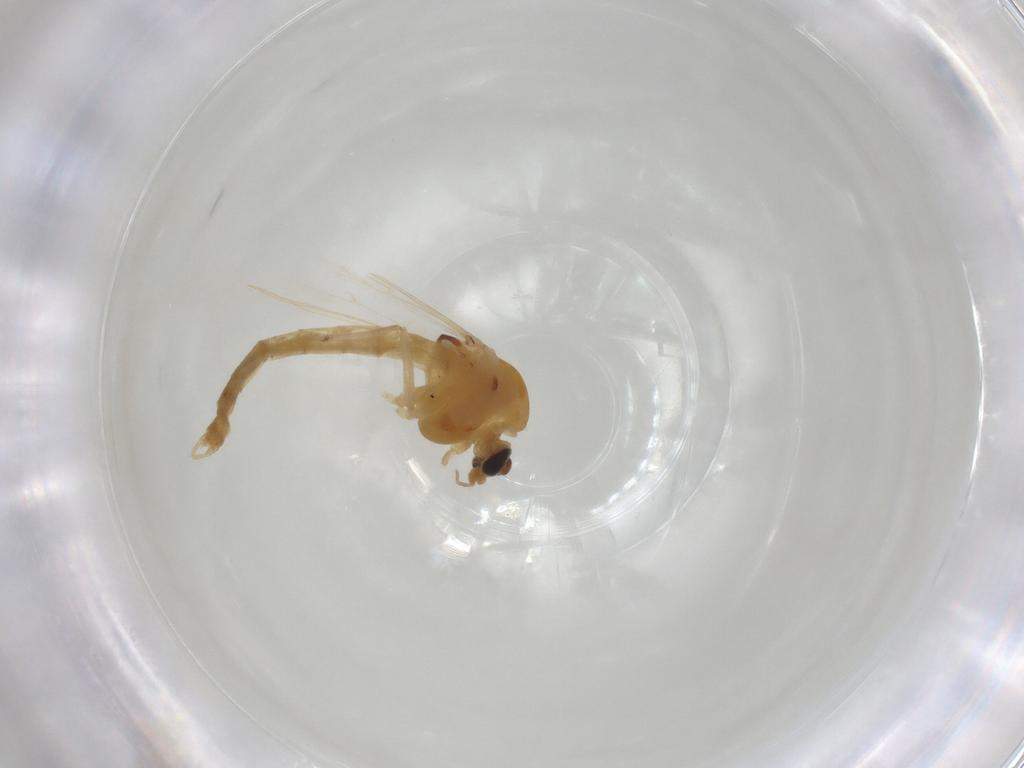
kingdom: Animalia
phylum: Arthropoda
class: Insecta
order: Diptera
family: Chironomidae
